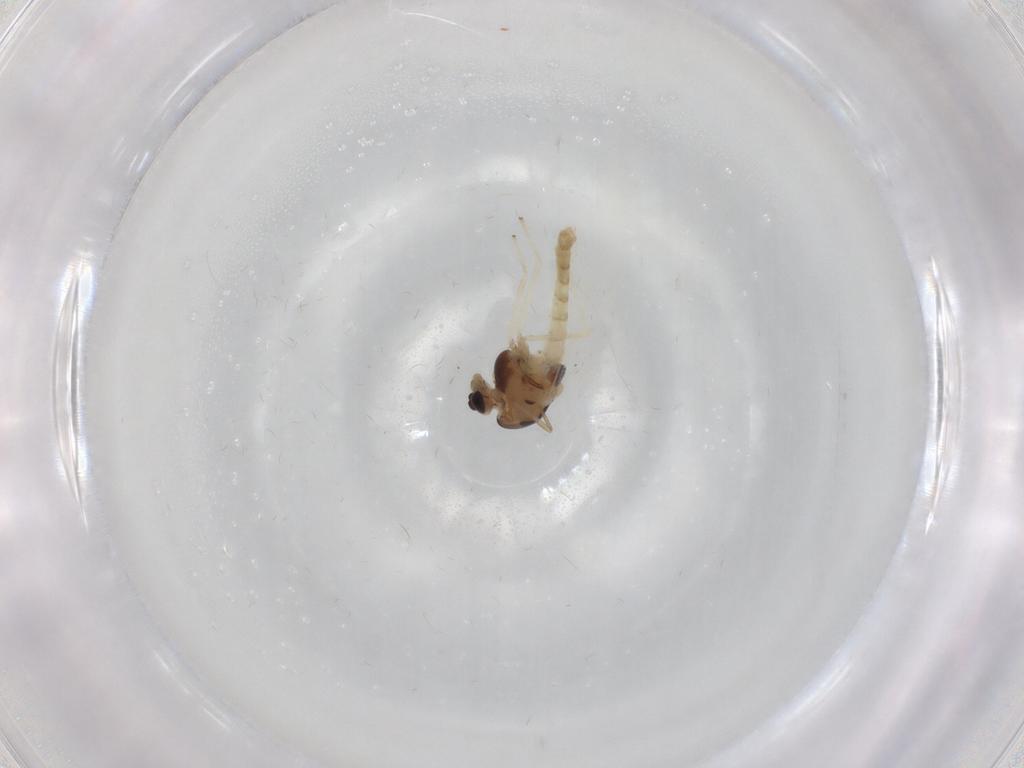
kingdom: Animalia
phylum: Arthropoda
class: Insecta
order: Diptera
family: Chironomidae
